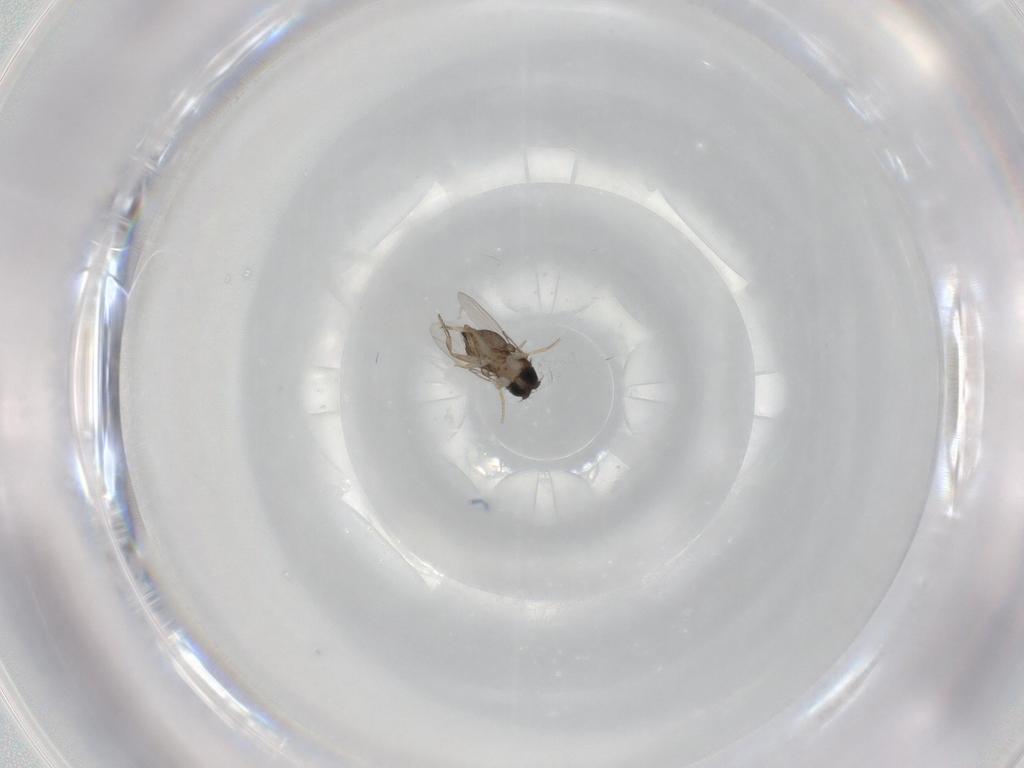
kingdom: Animalia
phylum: Arthropoda
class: Insecta
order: Diptera
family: Phoridae
